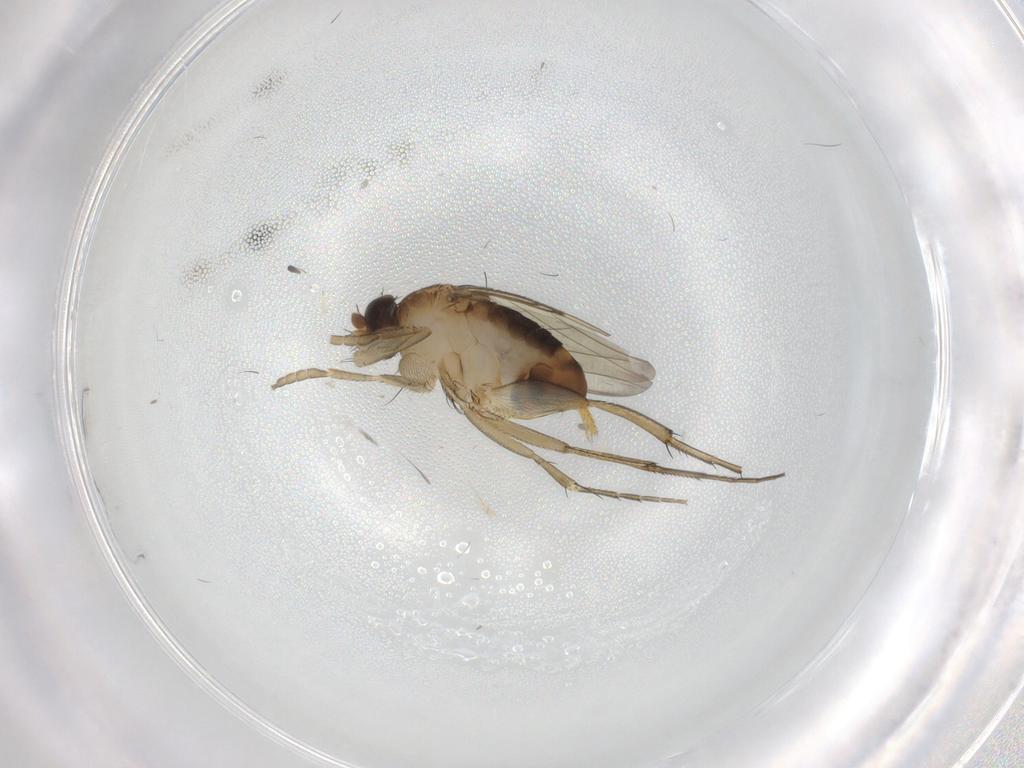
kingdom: Animalia
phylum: Arthropoda
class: Insecta
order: Diptera
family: Phoridae
